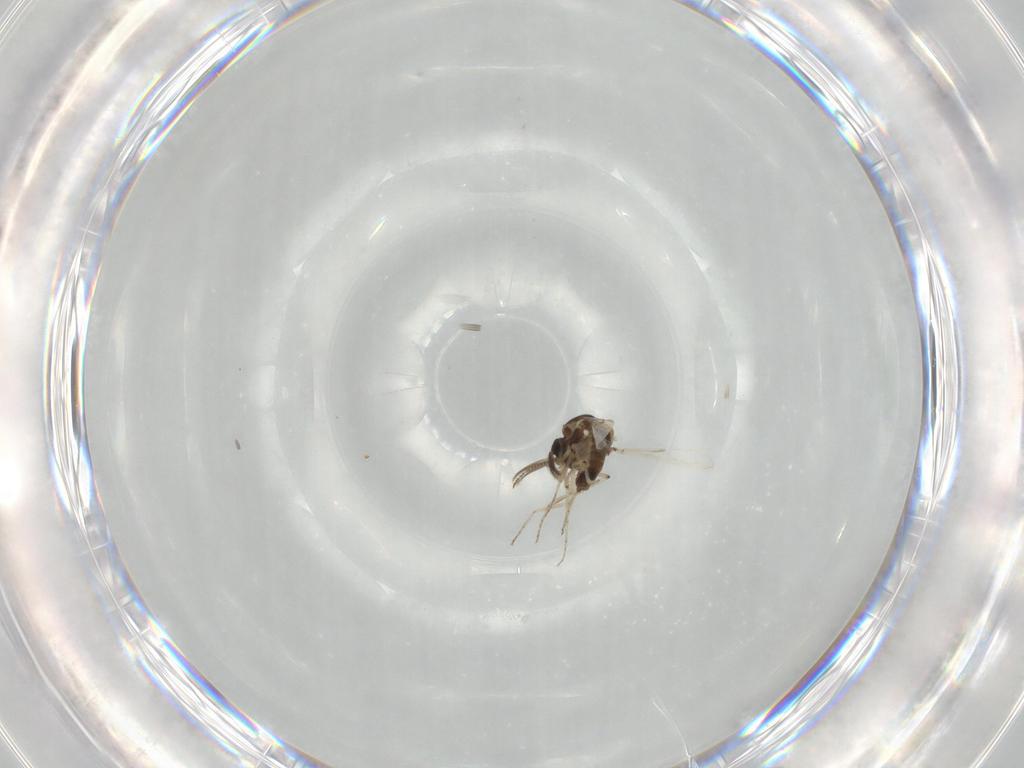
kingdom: Animalia
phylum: Arthropoda
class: Insecta
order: Diptera
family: Ceratopogonidae
